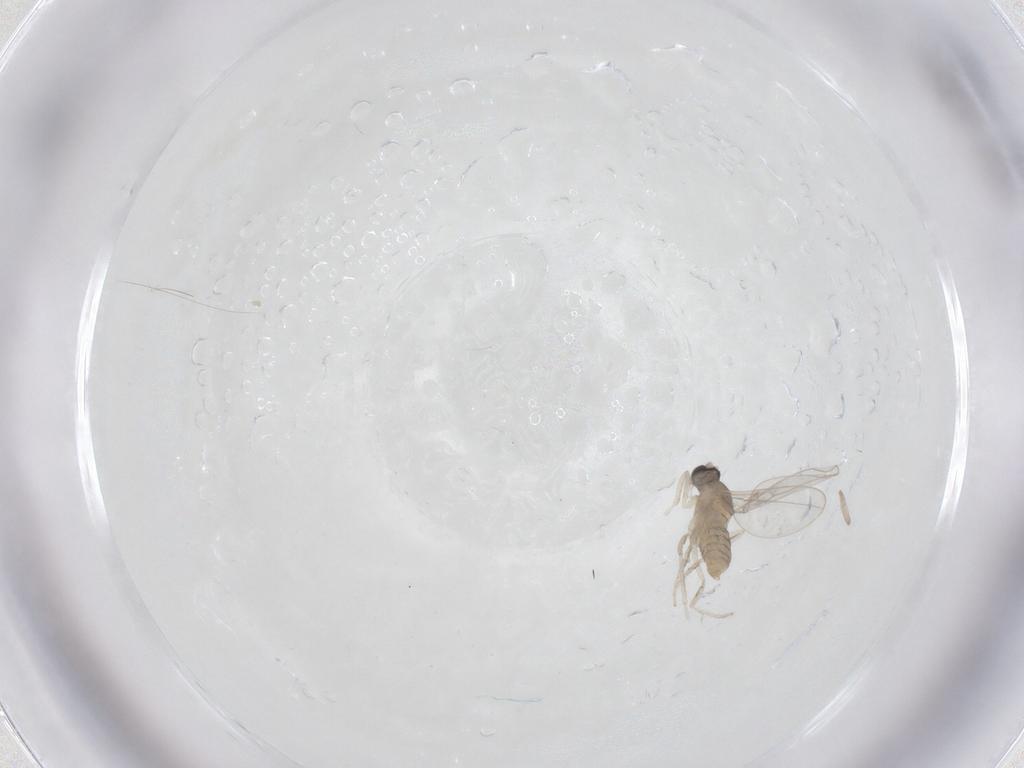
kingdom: Animalia
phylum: Arthropoda
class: Insecta
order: Diptera
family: Cecidomyiidae
